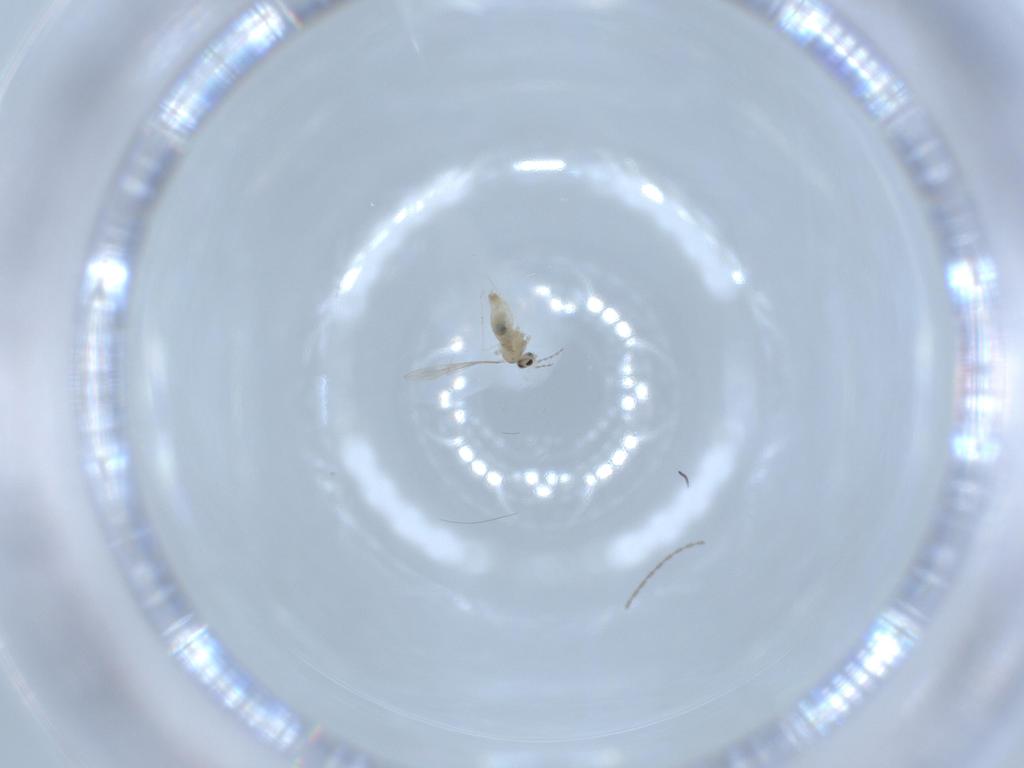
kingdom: Animalia
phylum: Arthropoda
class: Insecta
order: Diptera
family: Cecidomyiidae
